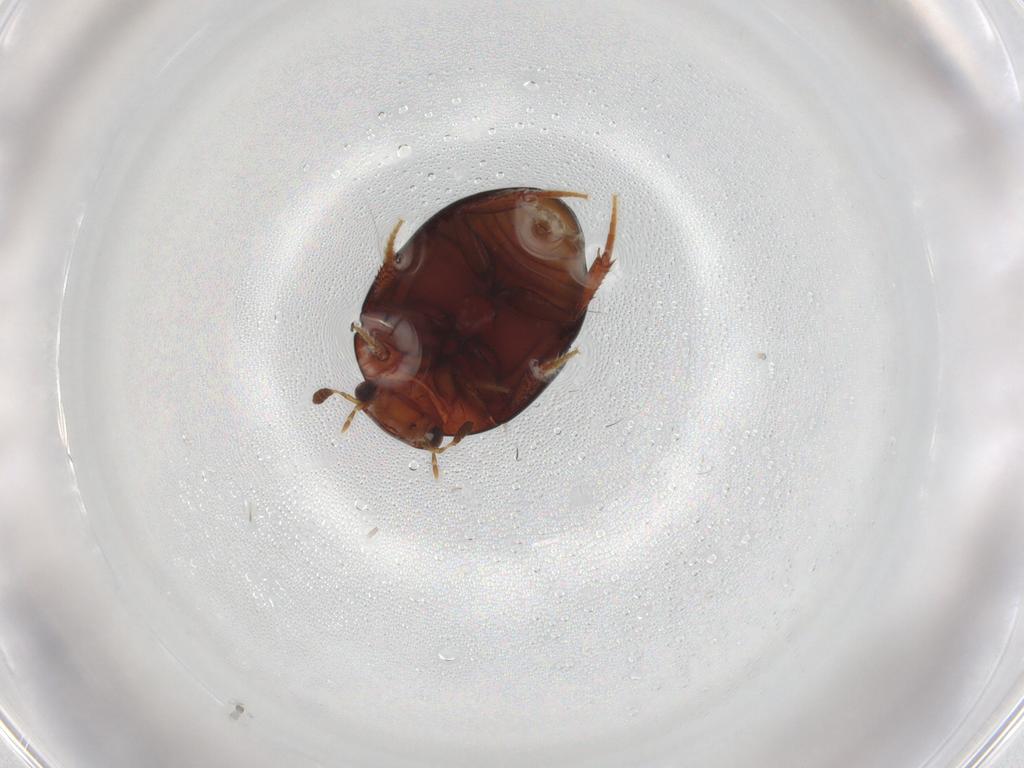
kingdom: Animalia
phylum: Arthropoda
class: Insecta
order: Coleoptera
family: Hydrophilidae
